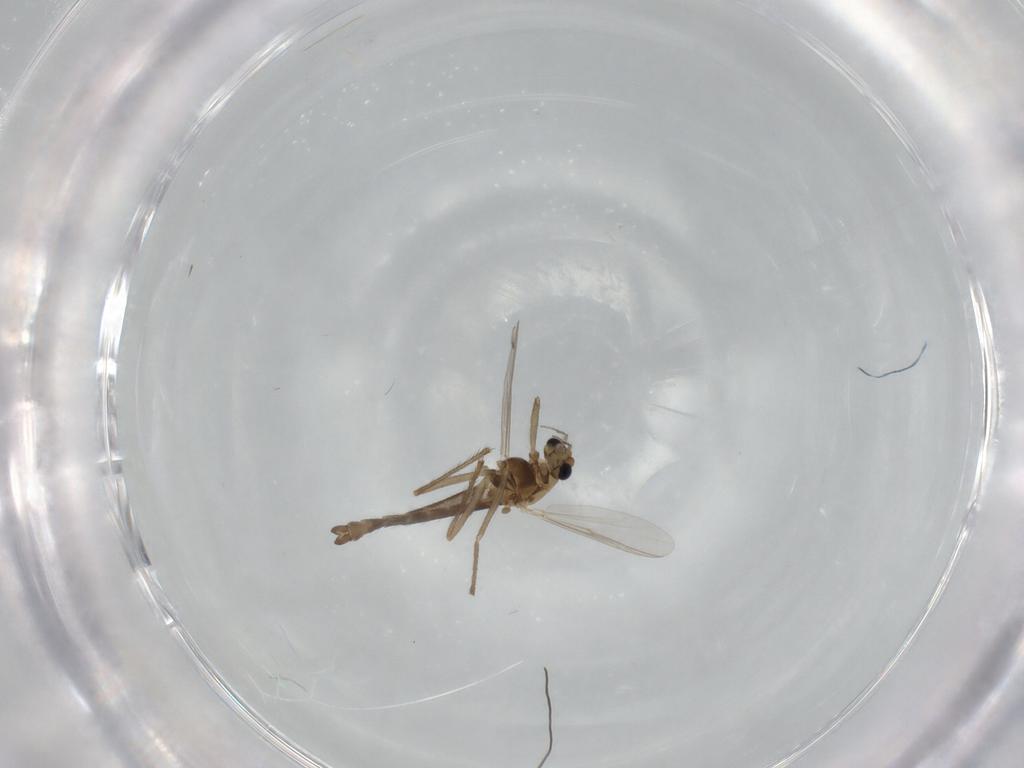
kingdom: Animalia
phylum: Arthropoda
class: Insecta
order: Diptera
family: Chironomidae
